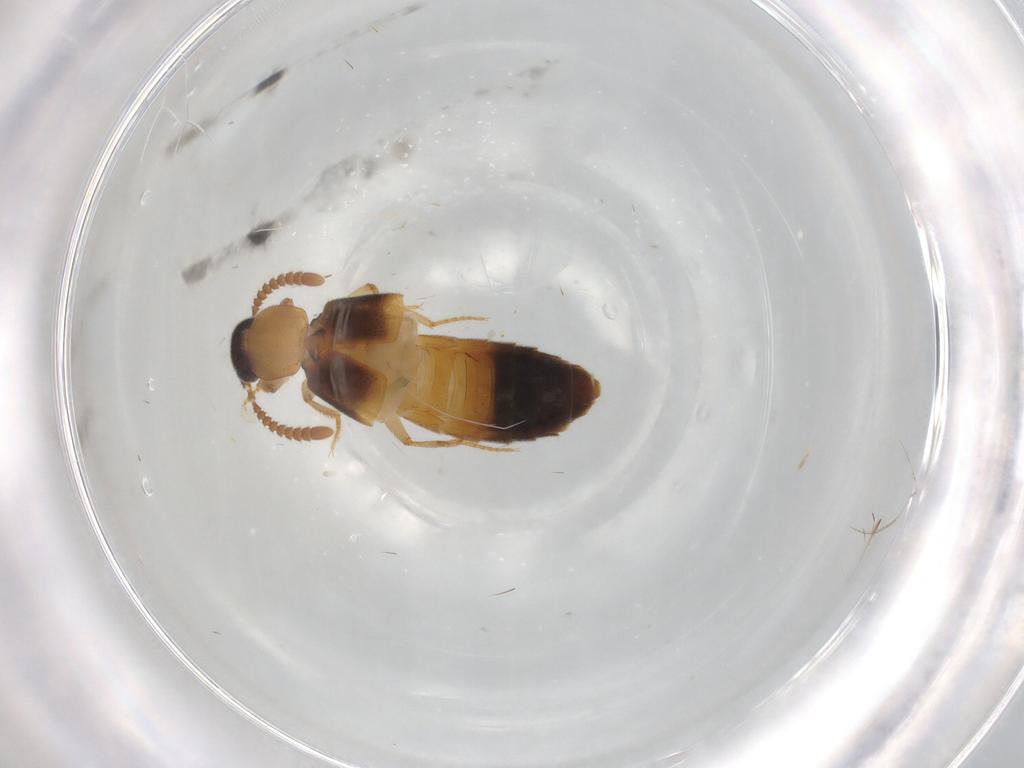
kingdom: Animalia
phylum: Arthropoda
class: Insecta
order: Coleoptera
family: Staphylinidae
